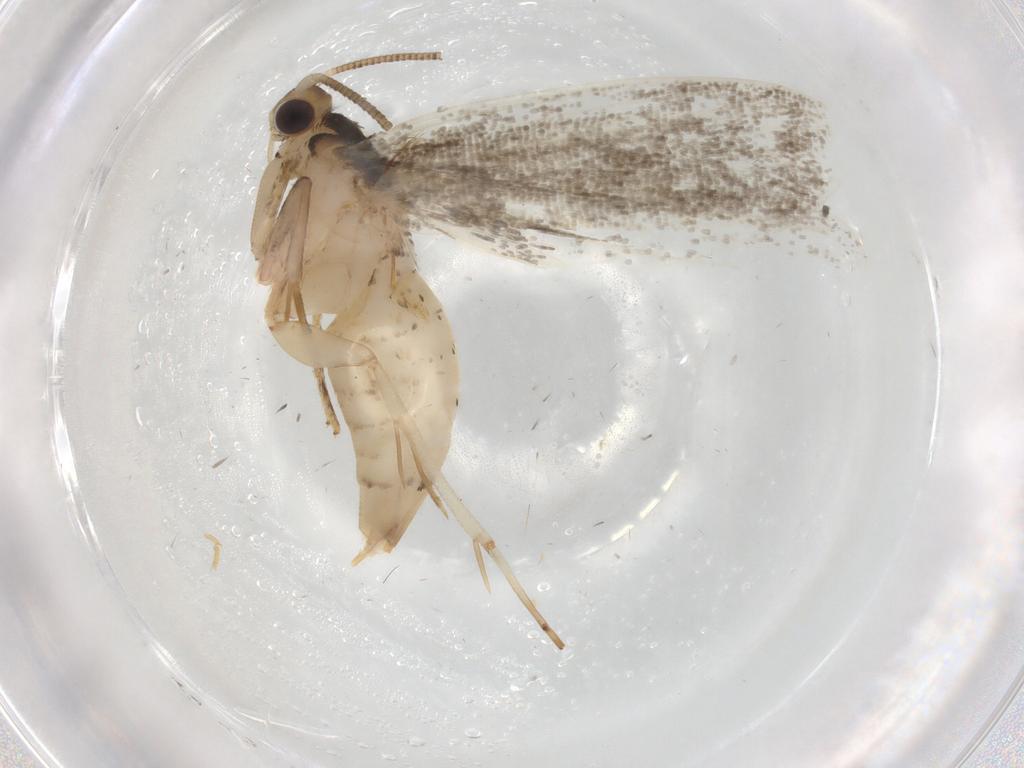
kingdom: Animalia
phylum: Arthropoda
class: Insecta
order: Lepidoptera
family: Tineidae
